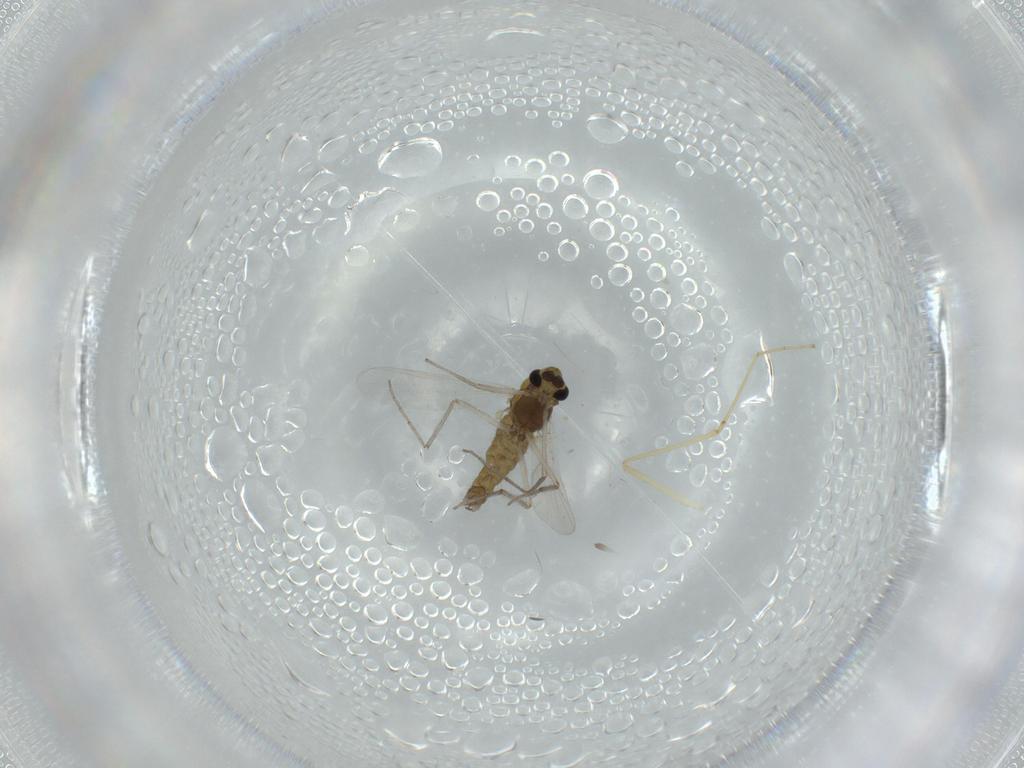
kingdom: Animalia
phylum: Arthropoda
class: Insecta
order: Diptera
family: Chironomidae
